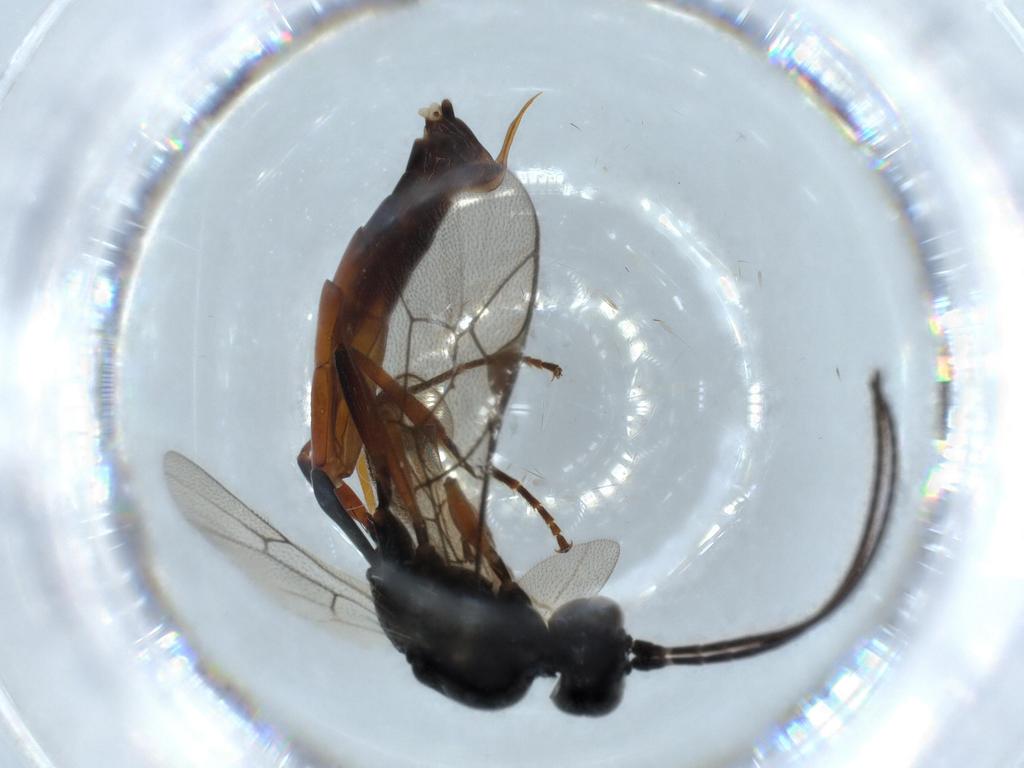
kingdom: Animalia
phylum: Arthropoda
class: Insecta
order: Hymenoptera
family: Ichneumonidae
